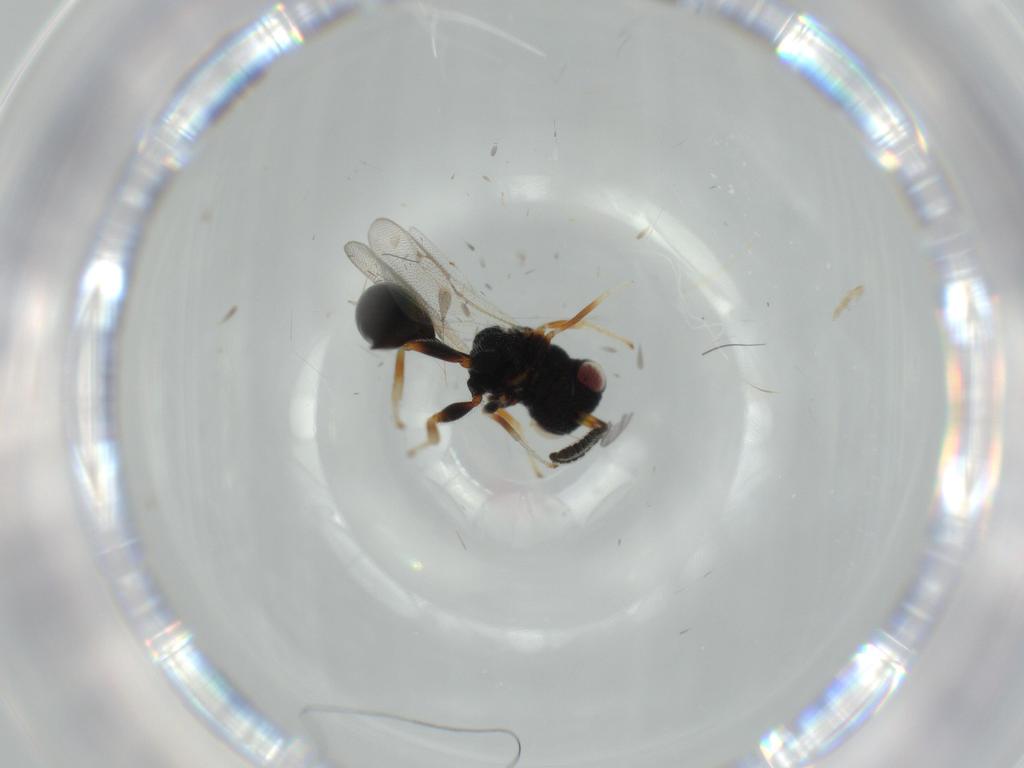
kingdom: Animalia
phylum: Arthropoda
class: Insecta
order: Hymenoptera
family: Eurytomidae
